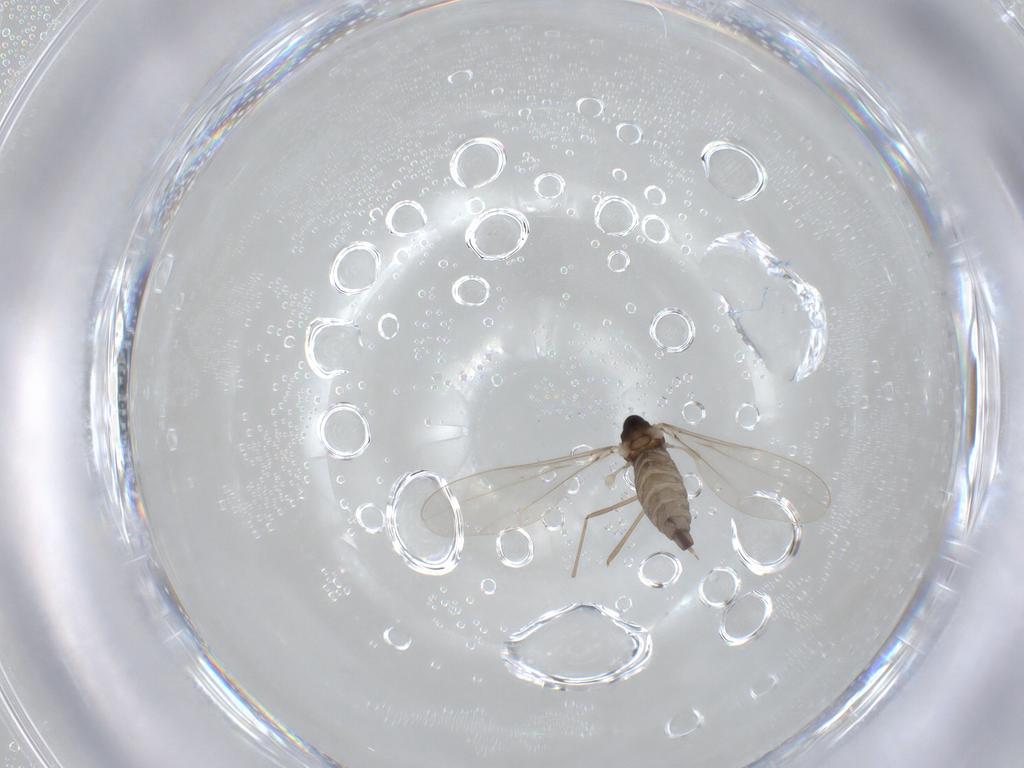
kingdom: Animalia
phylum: Arthropoda
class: Insecta
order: Diptera
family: Cecidomyiidae
